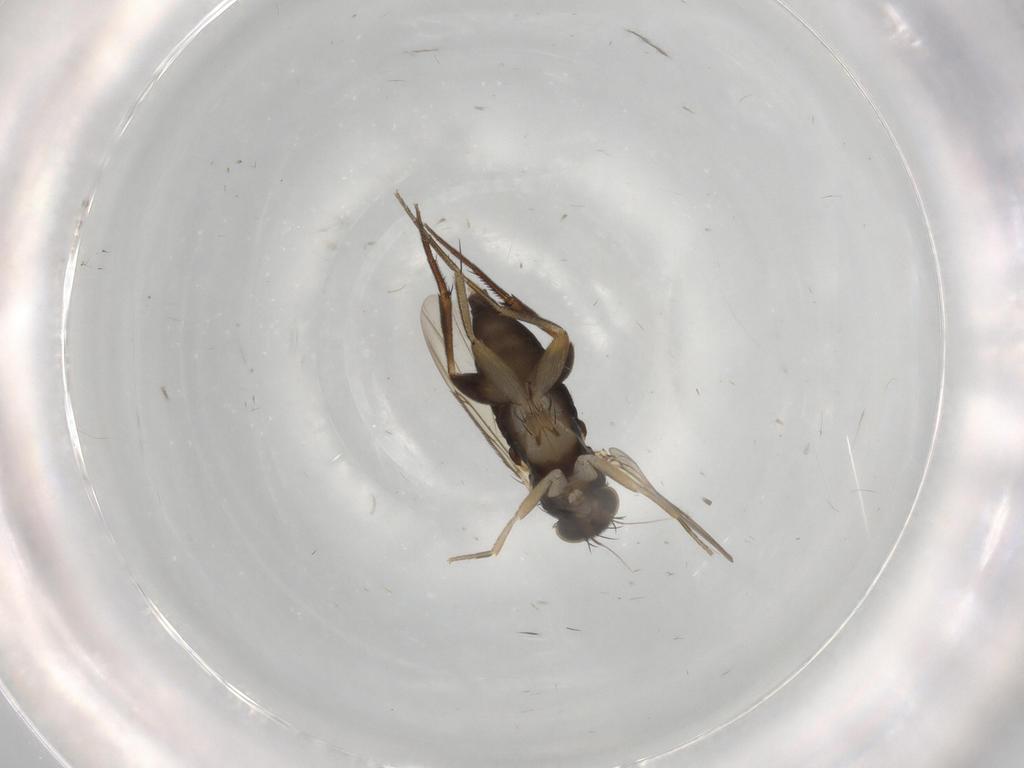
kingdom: Animalia
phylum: Arthropoda
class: Insecta
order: Diptera
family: Phoridae
